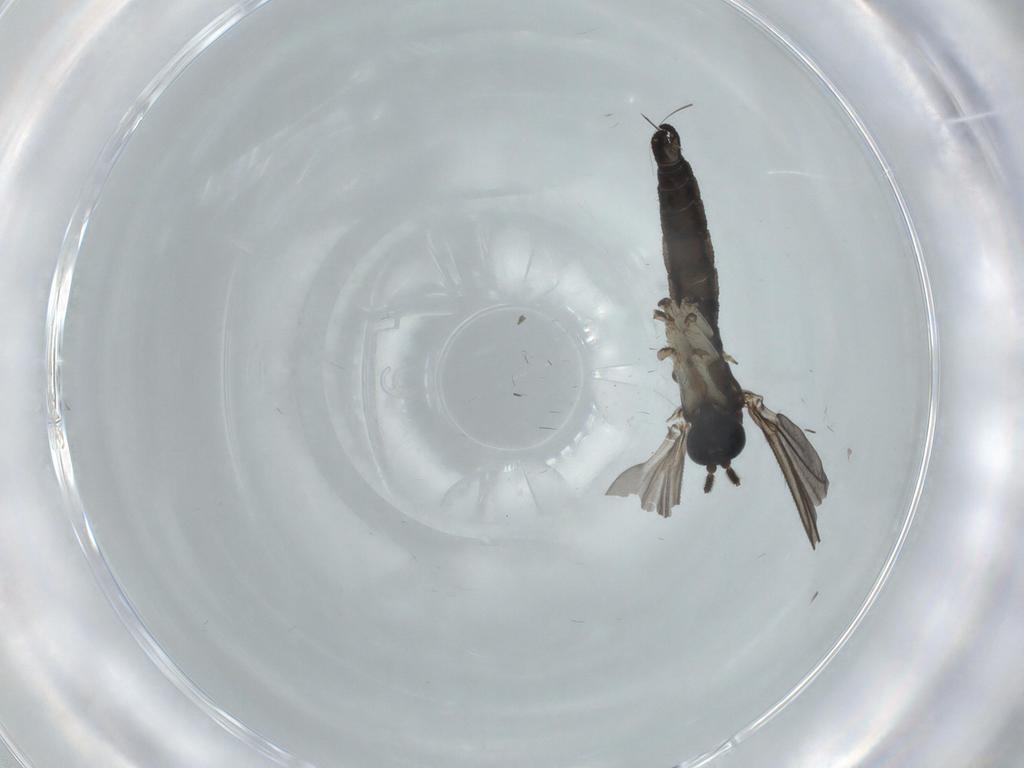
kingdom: Animalia
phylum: Arthropoda
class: Insecta
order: Diptera
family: Sciaridae
